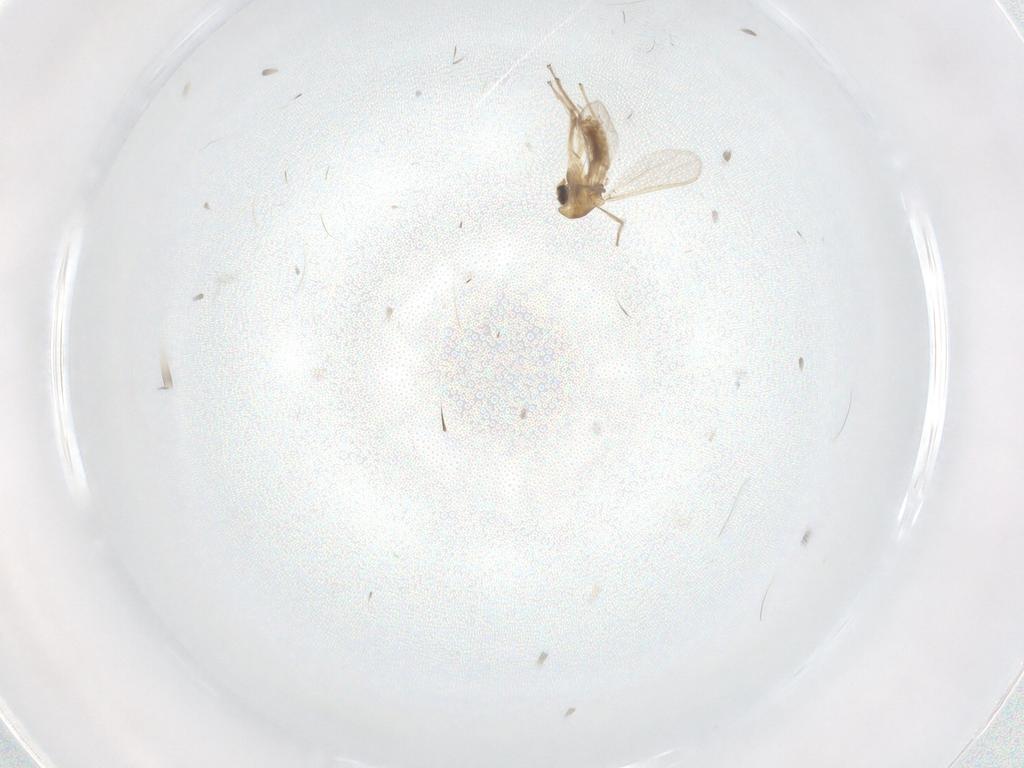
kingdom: Animalia
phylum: Arthropoda
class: Insecta
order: Diptera
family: Chironomidae
